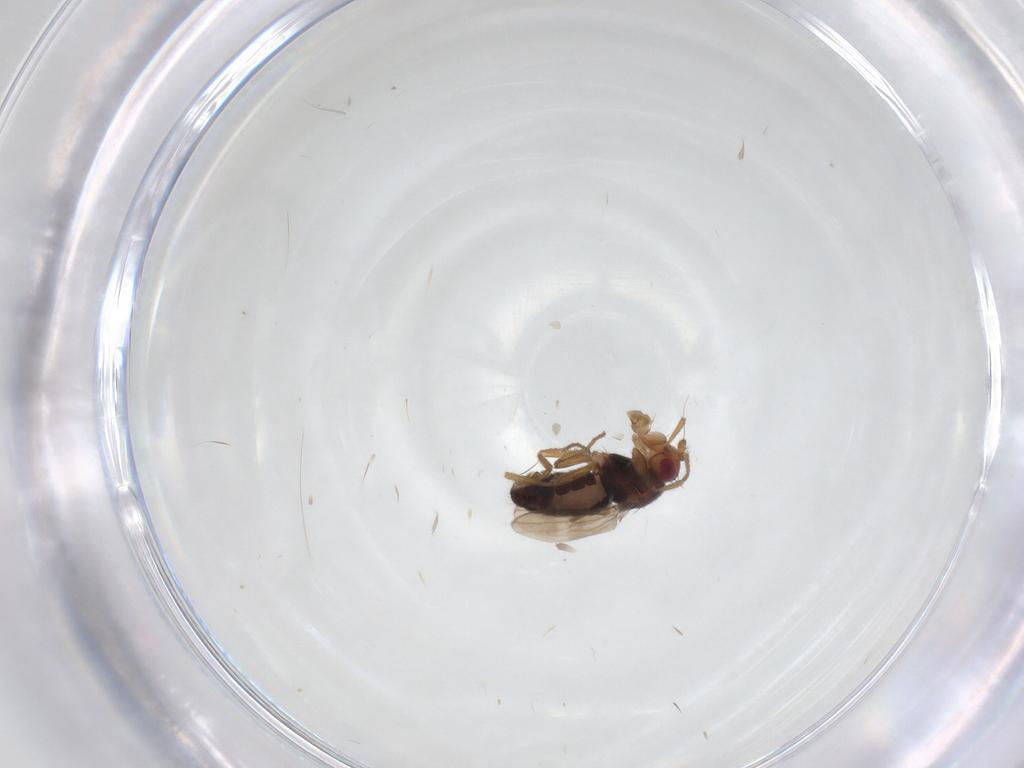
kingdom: Animalia
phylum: Arthropoda
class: Insecta
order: Diptera
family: Sphaeroceridae
